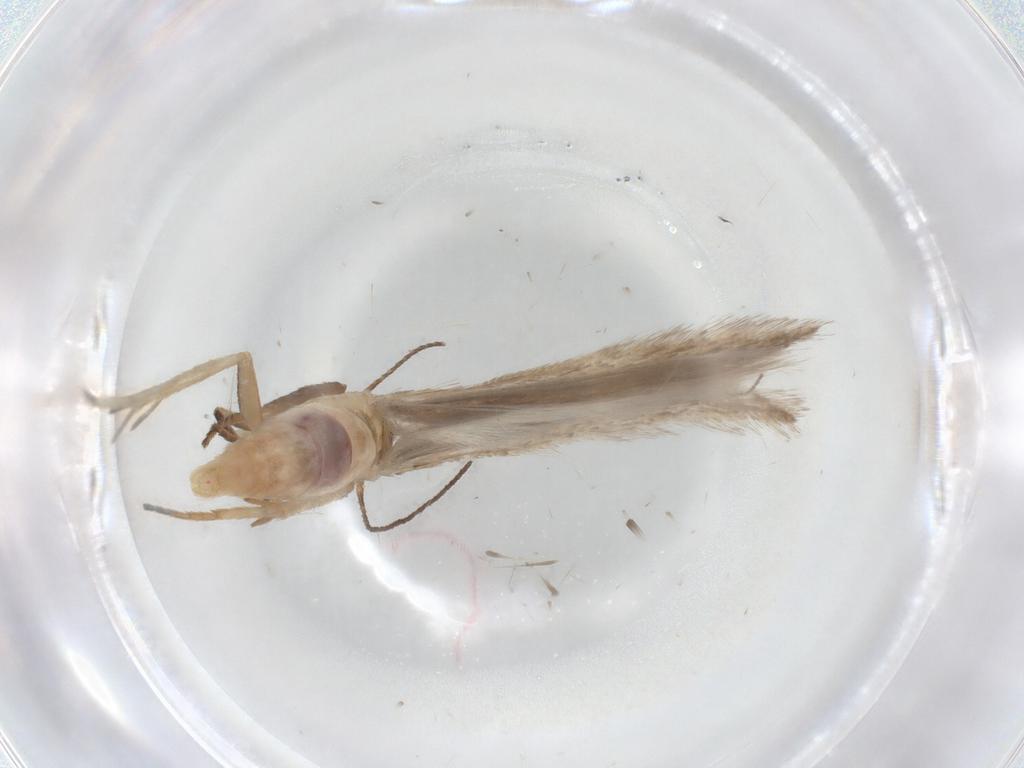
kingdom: Animalia
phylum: Arthropoda
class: Insecta
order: Lepidoptera
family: Gelechiidae
